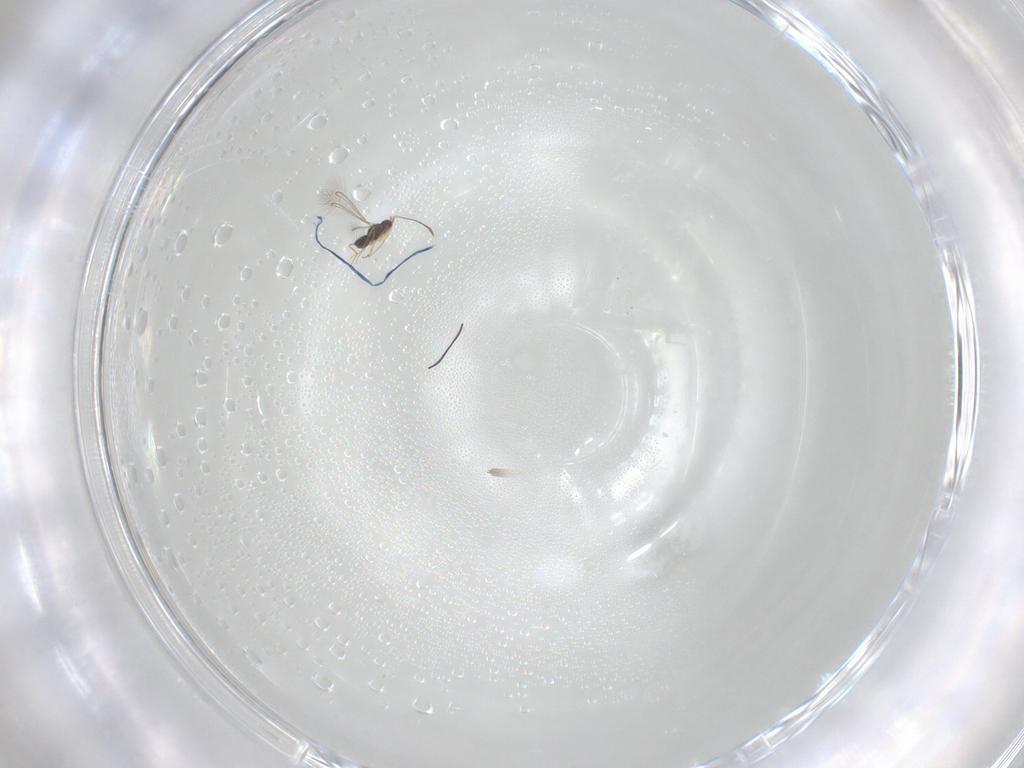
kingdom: Animalia
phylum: Arthropoda
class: Insecta
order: Hymenoptera
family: Mymaridae
